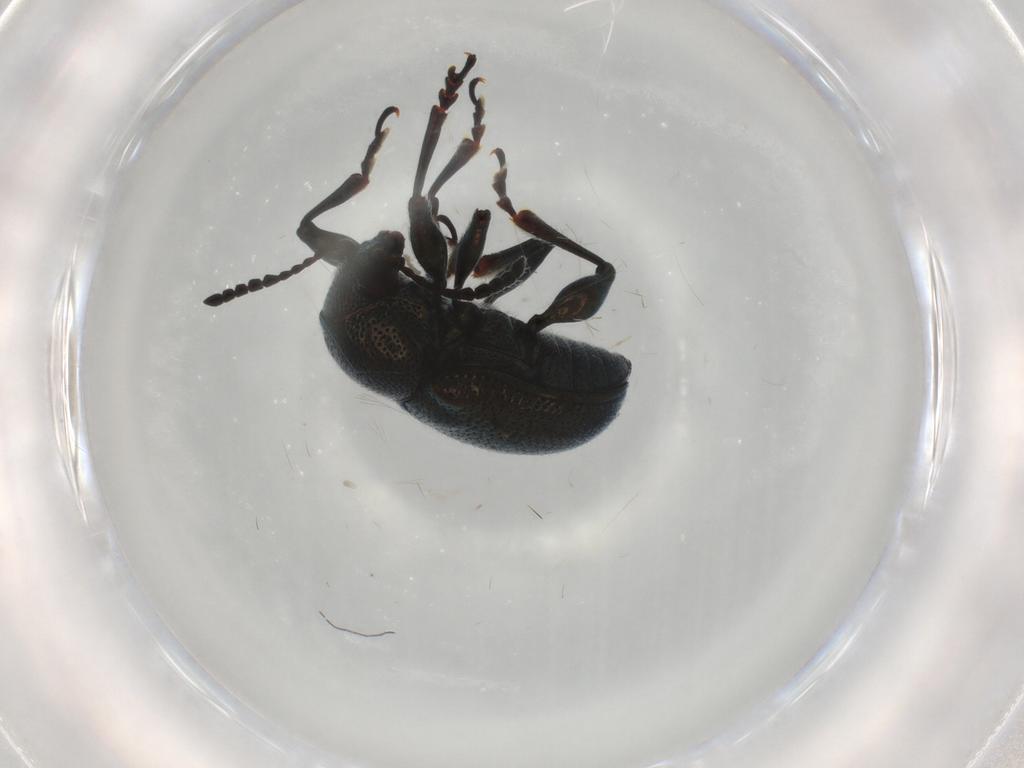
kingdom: Animalia
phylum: Arthropoda
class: Insecta
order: Coleoptera
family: Chrysomelidae
